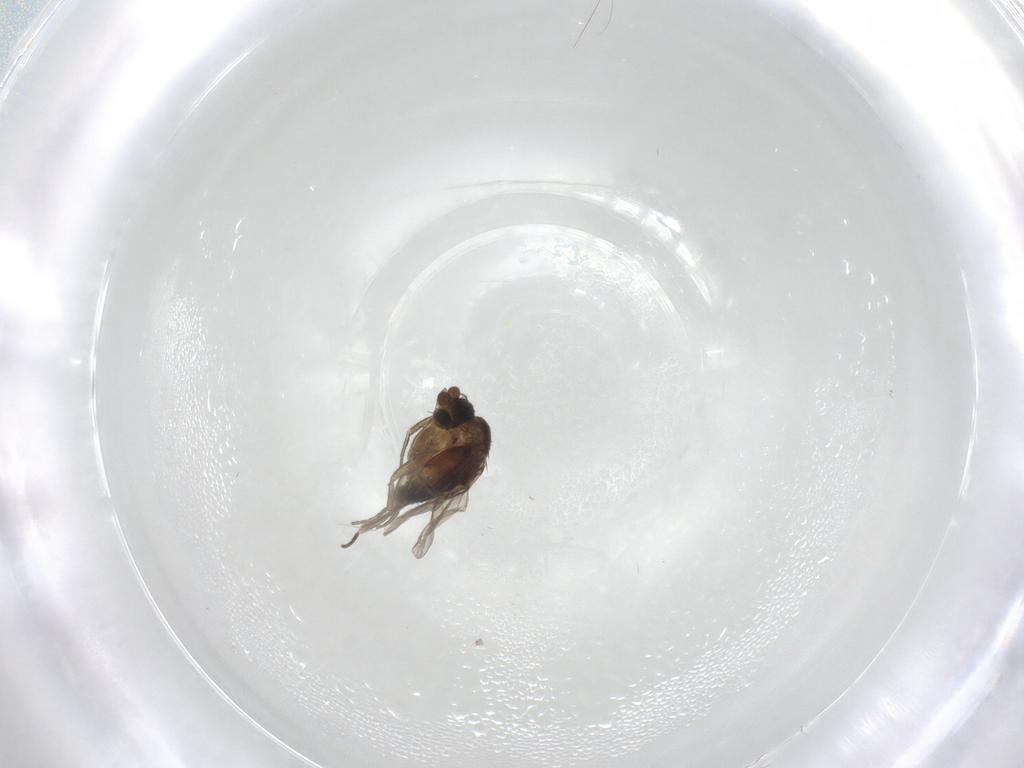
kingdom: Animalia
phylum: Arthropoda
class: Insecta
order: Diptera
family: Phoridae
